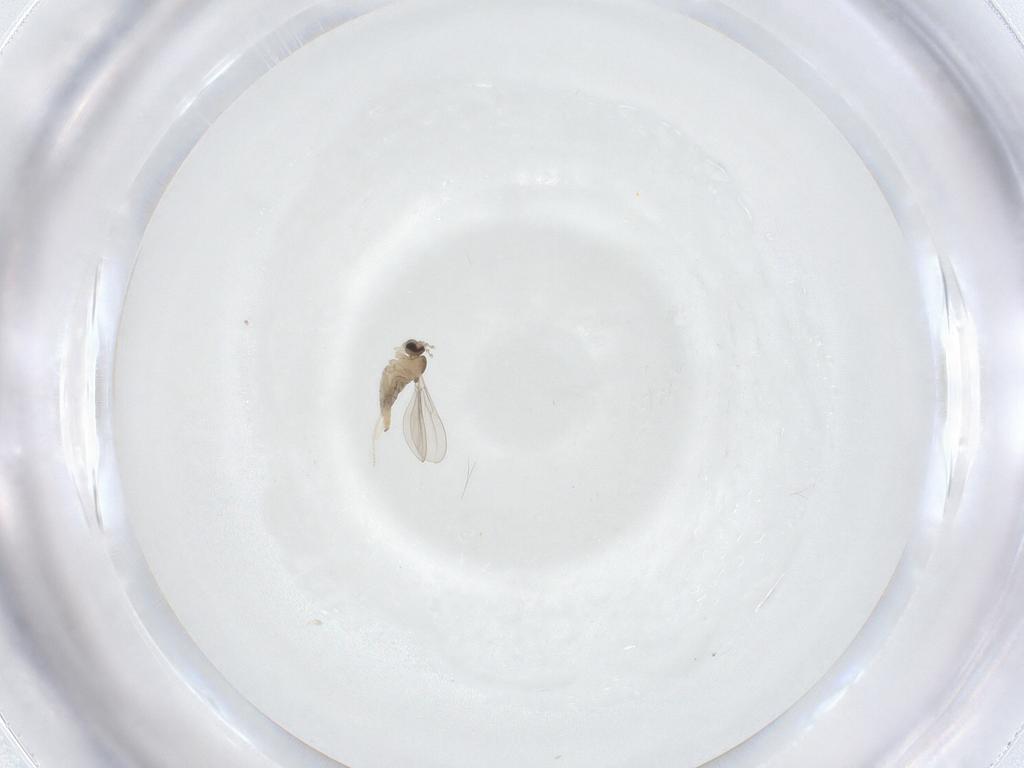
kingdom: Animalia
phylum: Arthropoda
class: Insecta
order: Diptera
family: Cecidomyiidae
